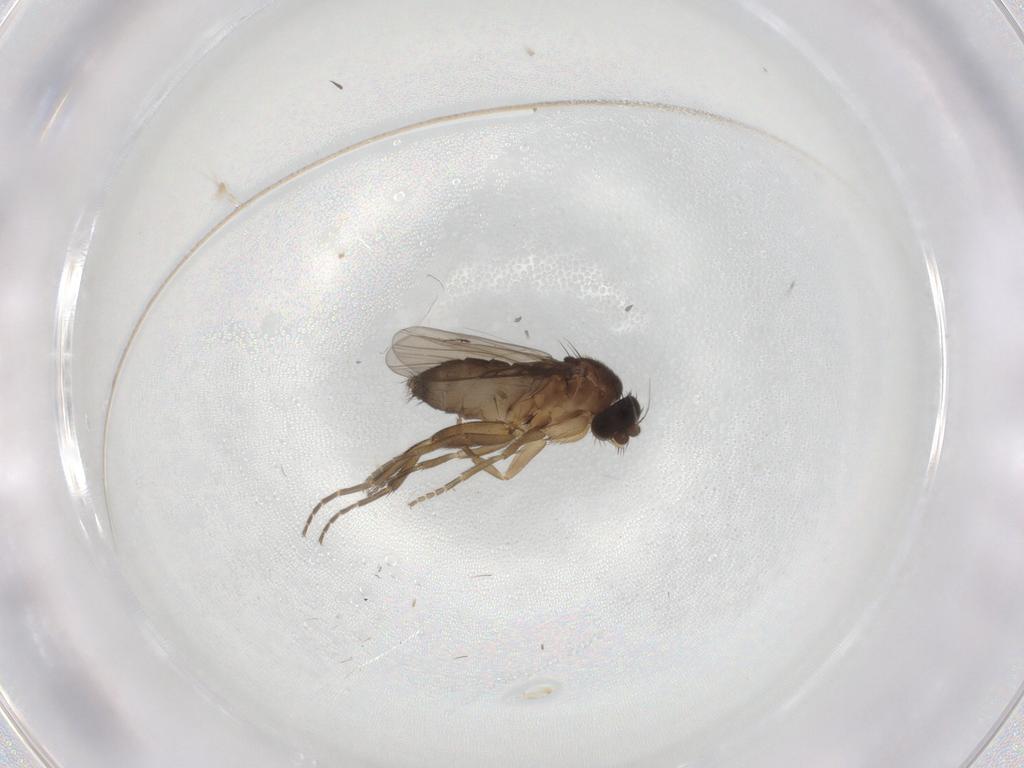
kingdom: Animalia
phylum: Arthropoda
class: Insecta
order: Diptera
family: Phoridae
